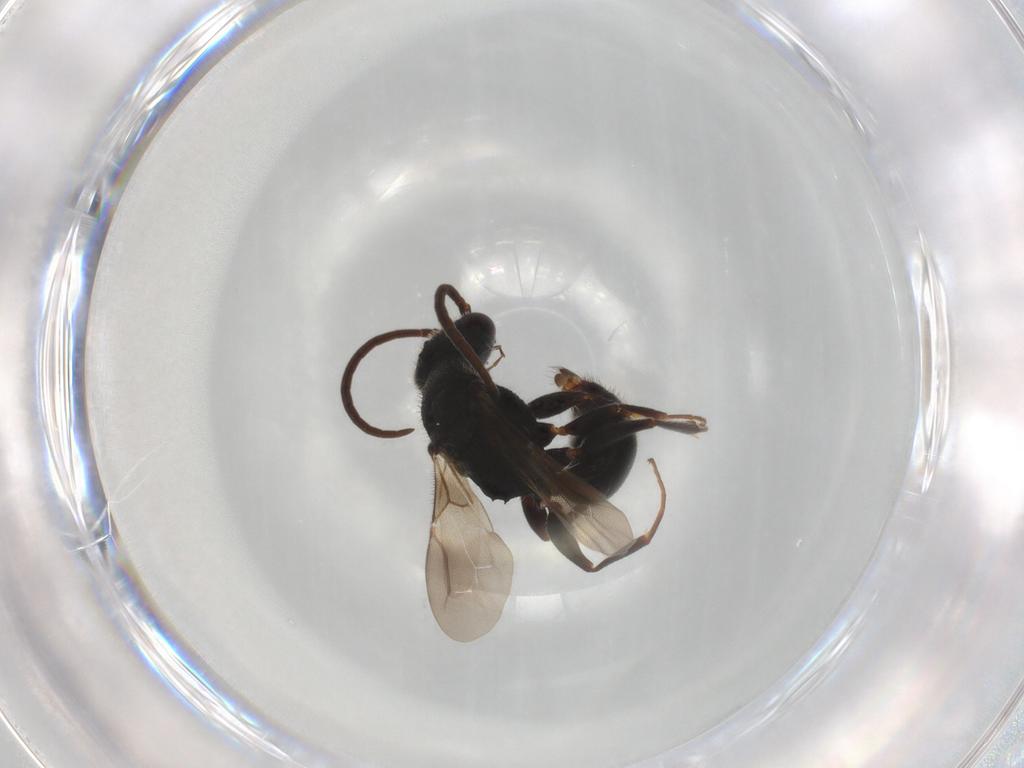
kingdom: Animalia
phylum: Arthropoda
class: Insecta
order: Hymenoptera
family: Formicidae
